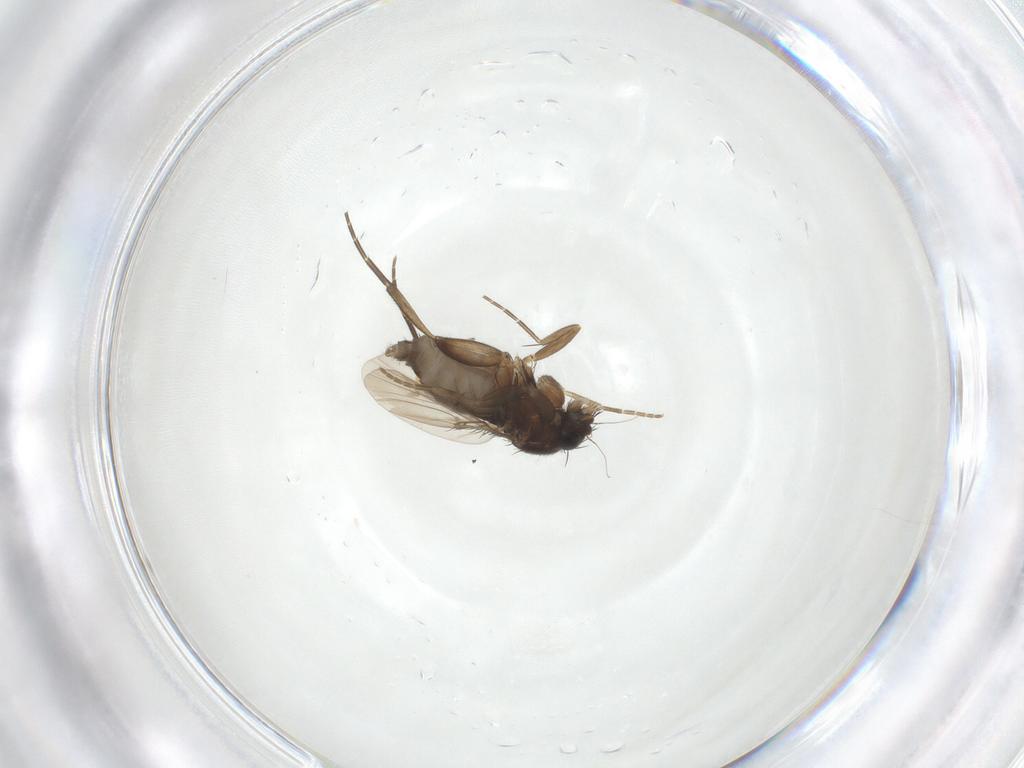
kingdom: Animalia
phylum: Arthropoda
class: Insecta
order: Diptera
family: Phoridae
